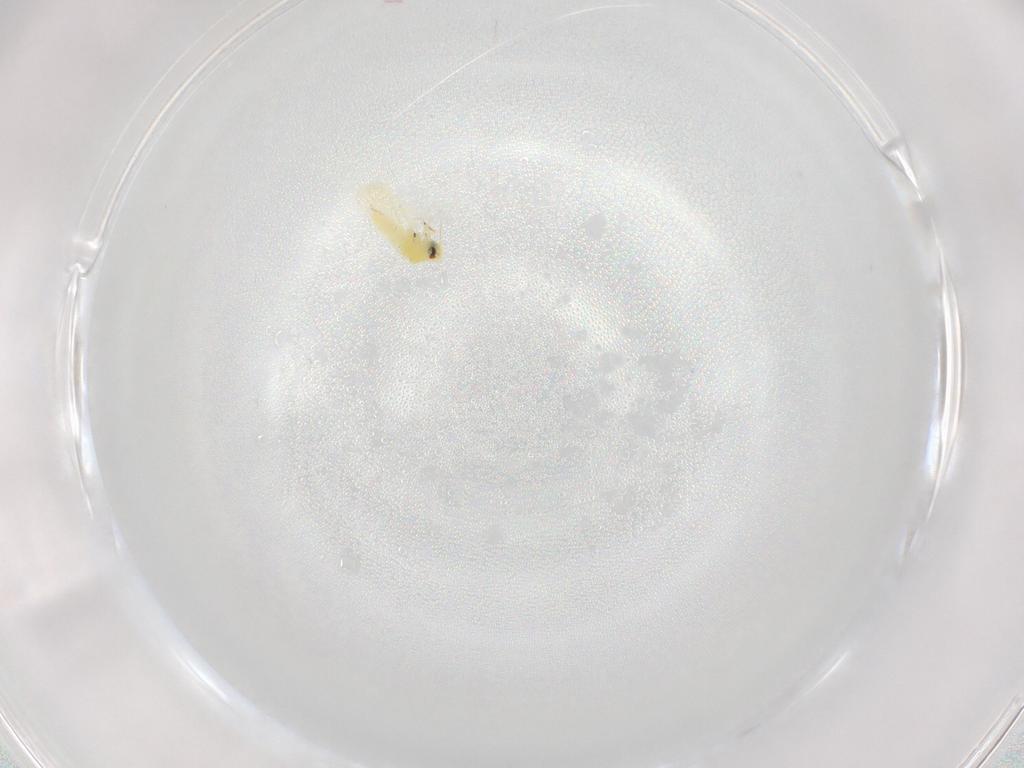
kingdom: Animalia
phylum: Arthropoda
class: Insecta
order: Hemiptera
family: Aleyrodidae
